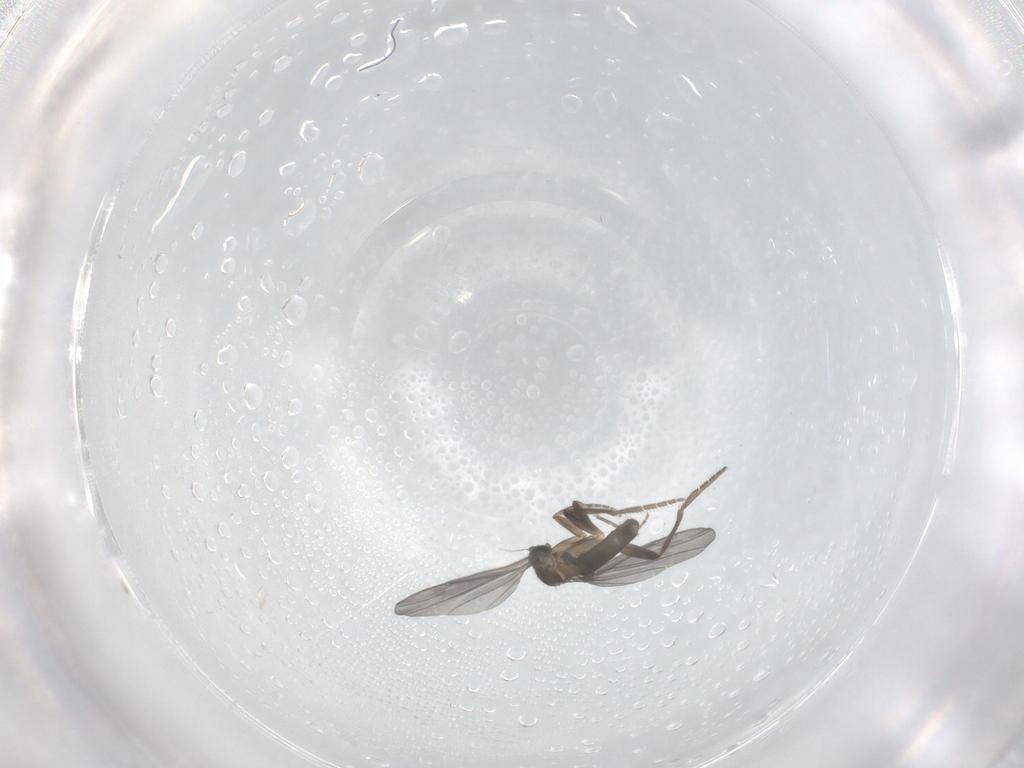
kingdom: Animalia
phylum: Arthropoda
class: Insecta
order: Diptera
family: Phoridae
